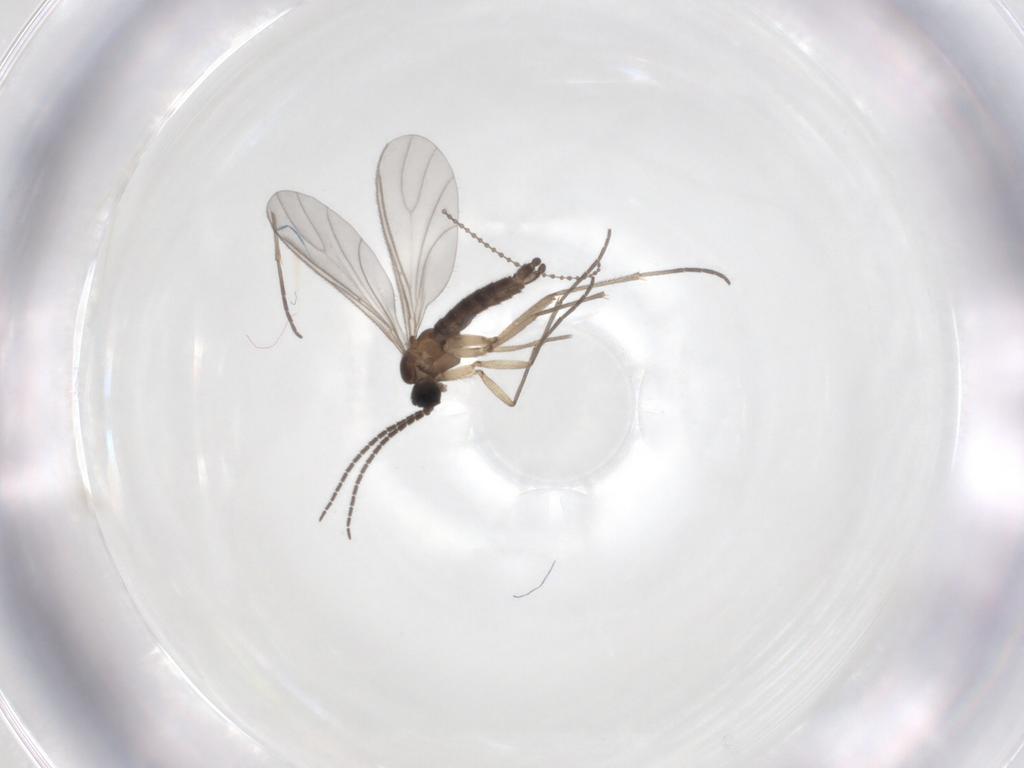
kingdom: Animalia
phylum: Arthropoda
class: Insecta
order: Diptera
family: Sciaridae
